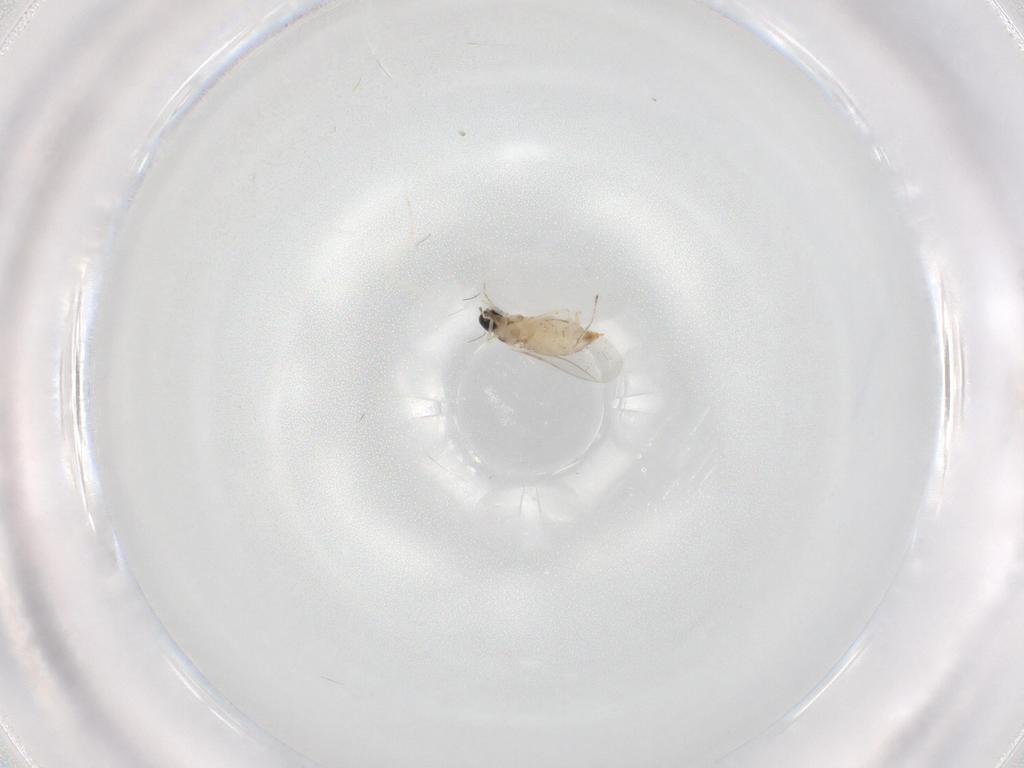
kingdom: Animalia
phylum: Arthropoda
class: Insecta
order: Diptera
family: Cecidomyiidae
